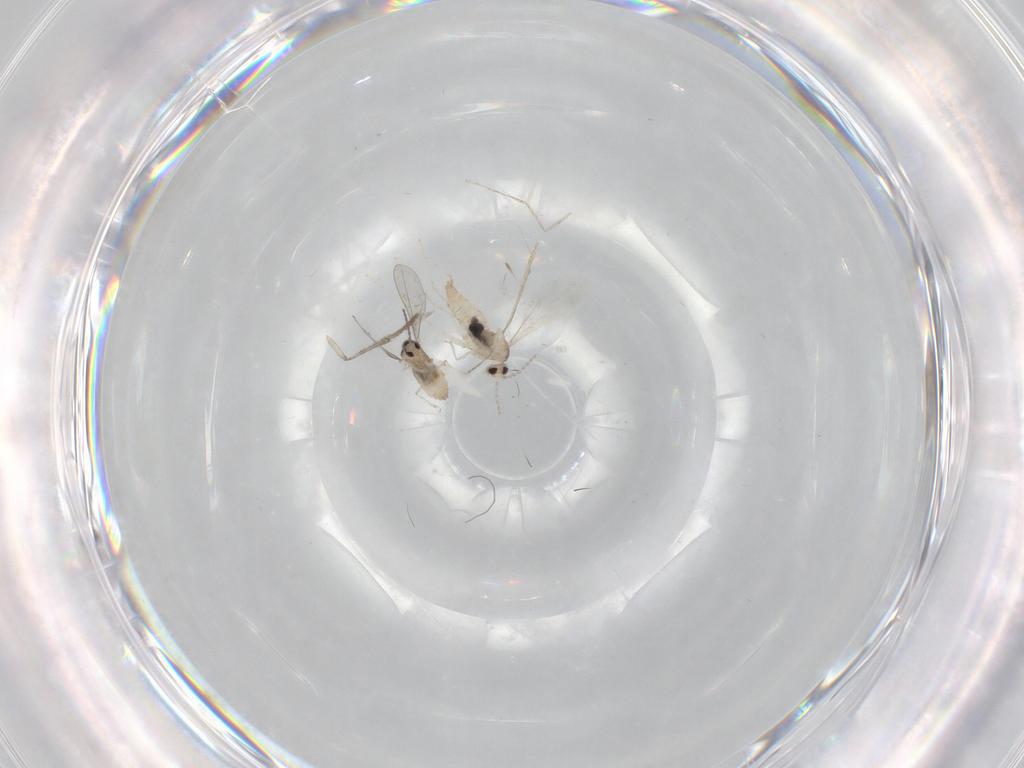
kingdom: Animalia
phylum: Arthropoda
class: Insecta
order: Diptera
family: Cecidomyiidae
